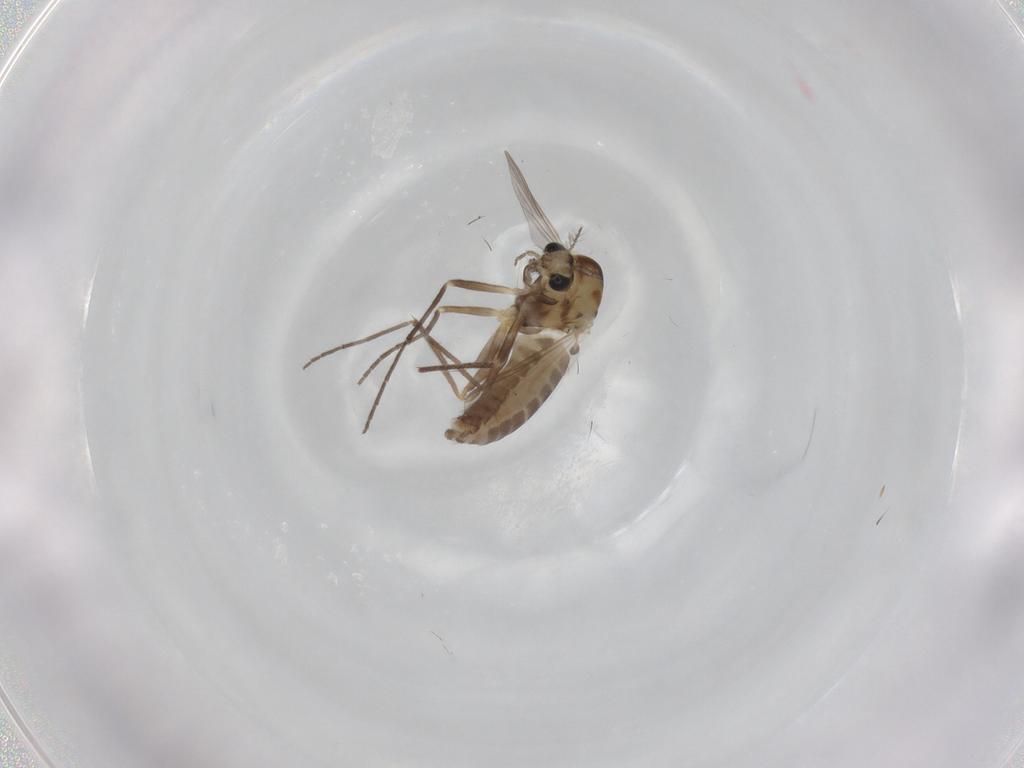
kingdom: Animalia
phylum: Arthropoda
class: Insecta
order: Diptera
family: Chironomidae
